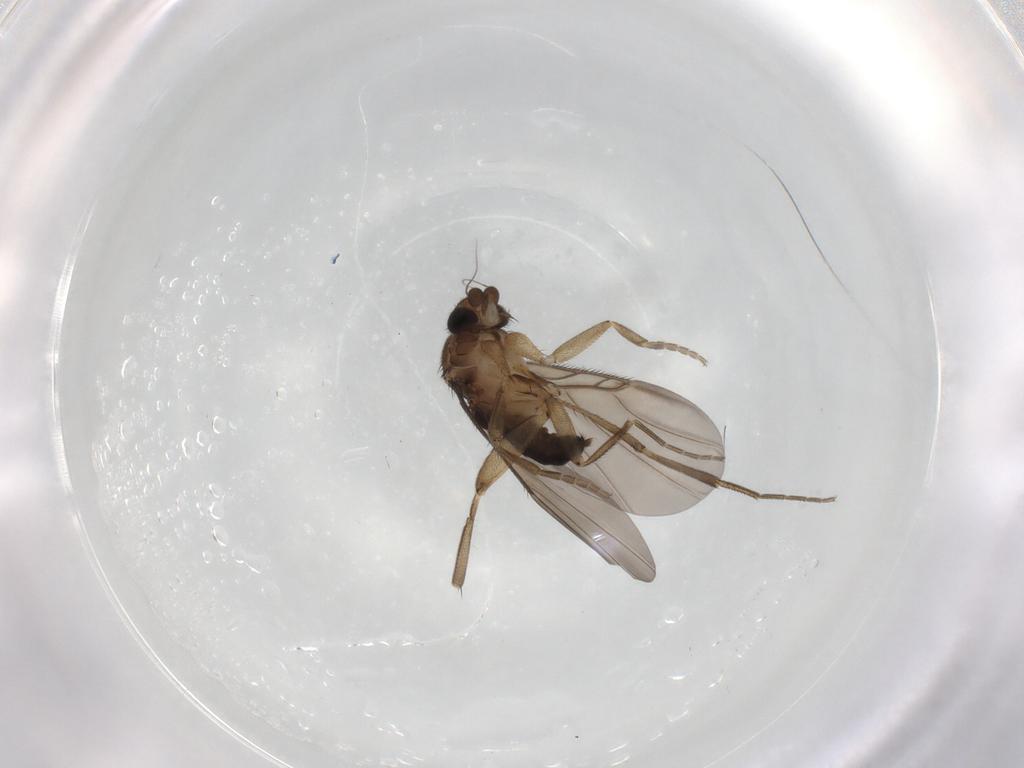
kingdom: Animalia
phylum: Arthropoda
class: Insecta
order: Diptera
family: Phoridae
